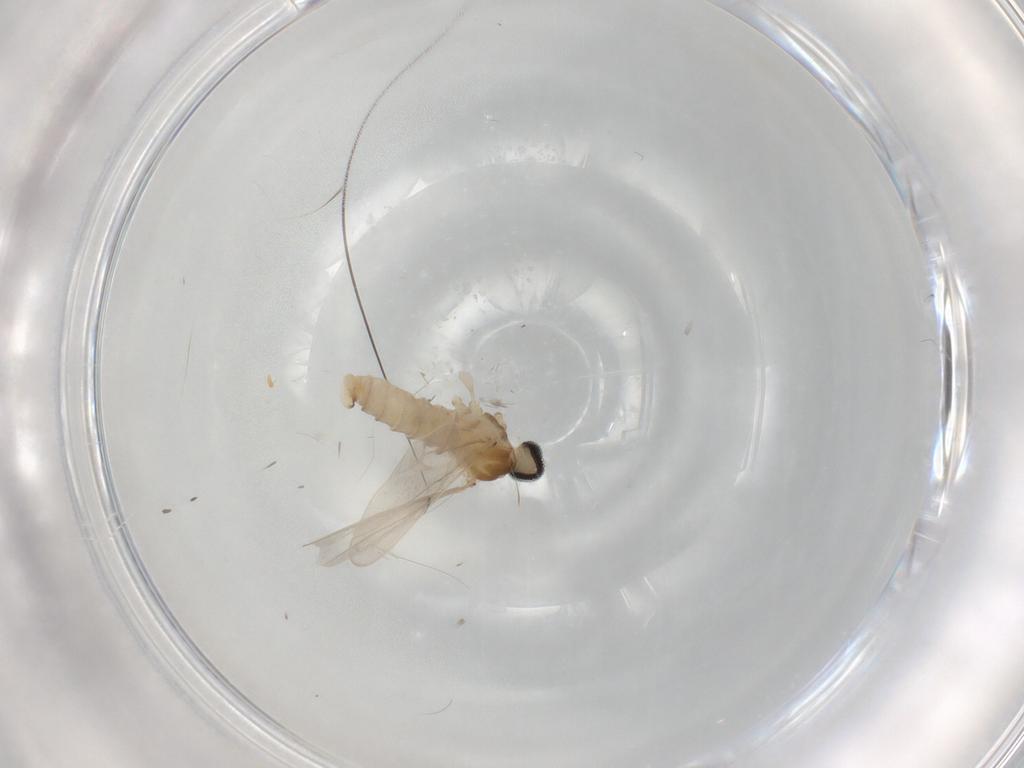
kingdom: Animalia
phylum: Arthropoda
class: Insecta
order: Diptera
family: Cecidomyiidae
